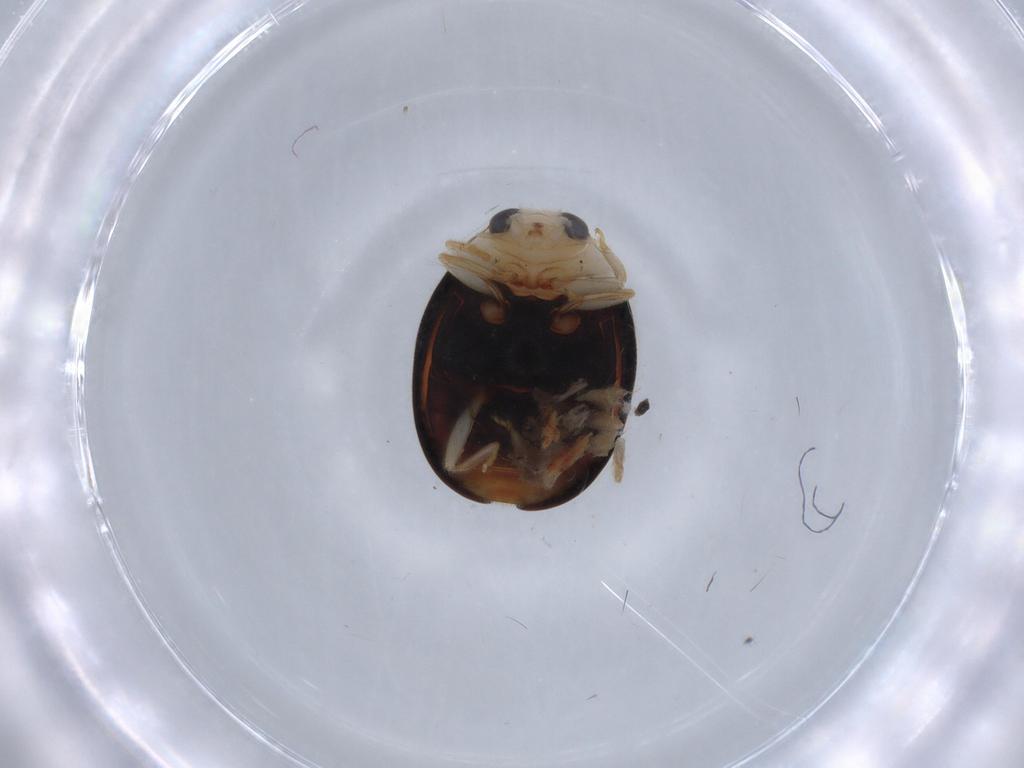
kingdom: Animalia
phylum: Arthropoda
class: Insecta
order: Coleoptera
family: Coccinellidae
